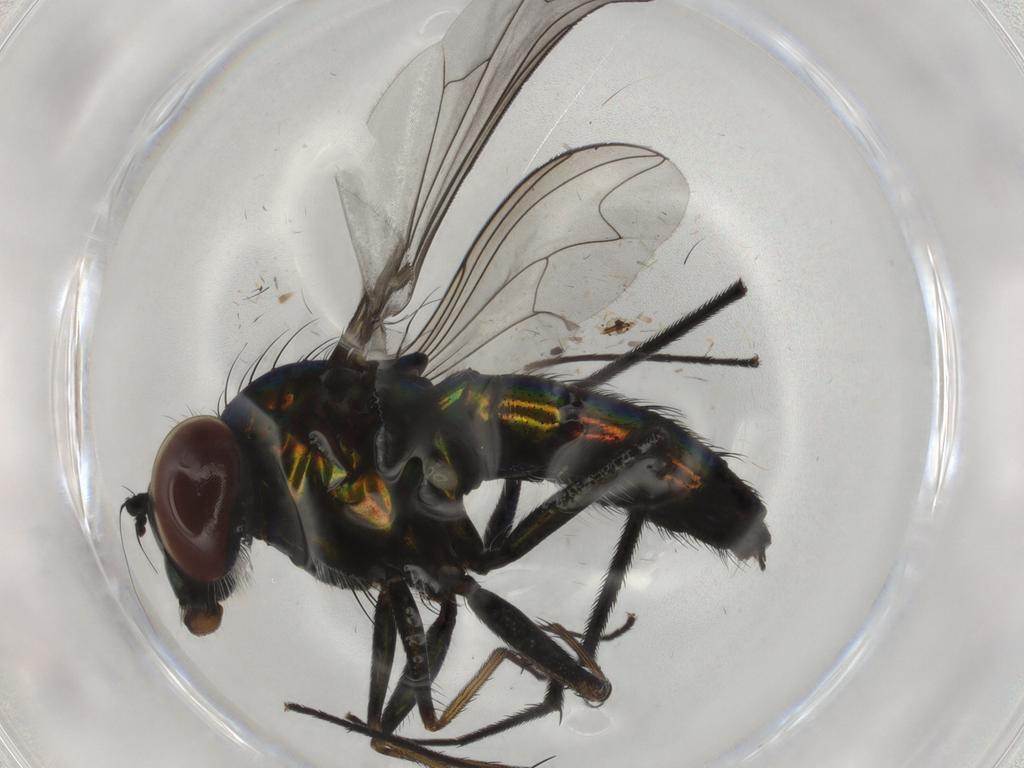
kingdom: Animalia
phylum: Arthropoda
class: Insecta
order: Diptera
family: Dolichopodidae
